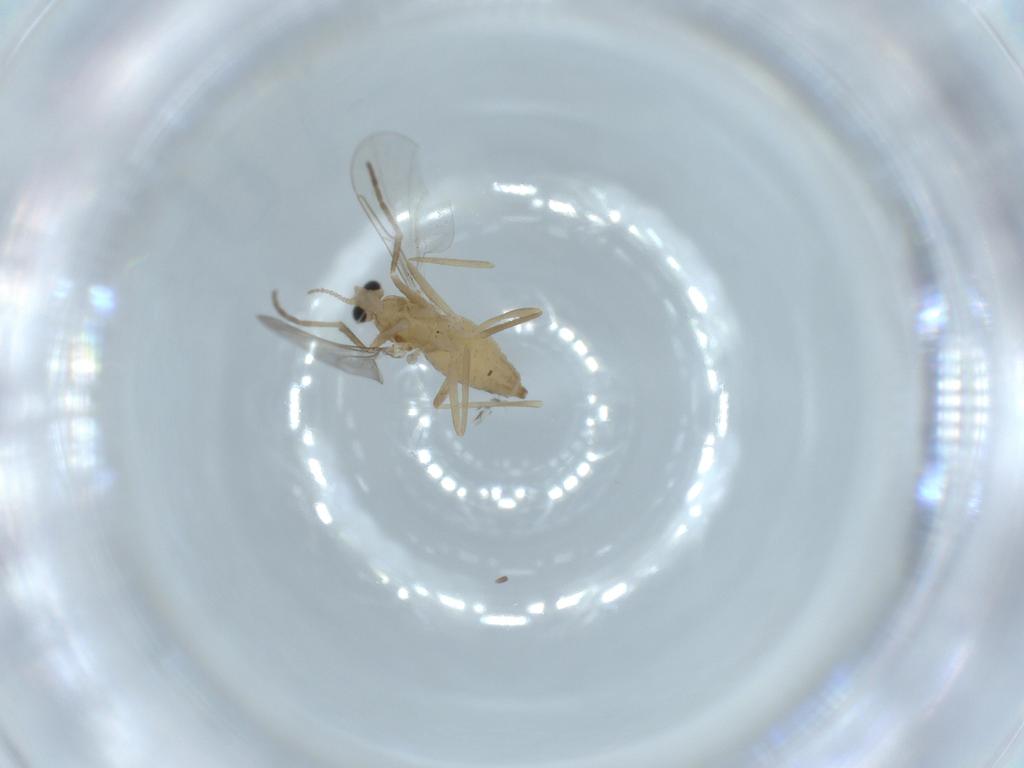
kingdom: Animalia
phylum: Arthropoda
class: Insecta
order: Diptera
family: Cecidomyiidae
